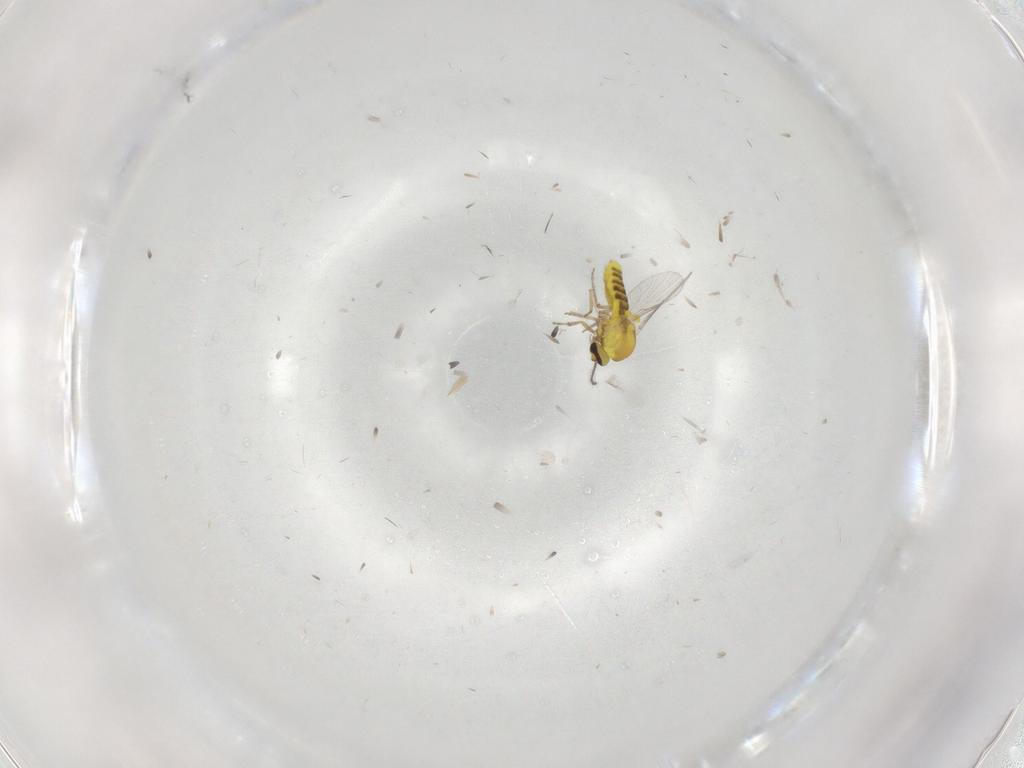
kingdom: Animalia
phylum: Arthropoda
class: Insecta
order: Diptera
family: Ceratopogonidae
